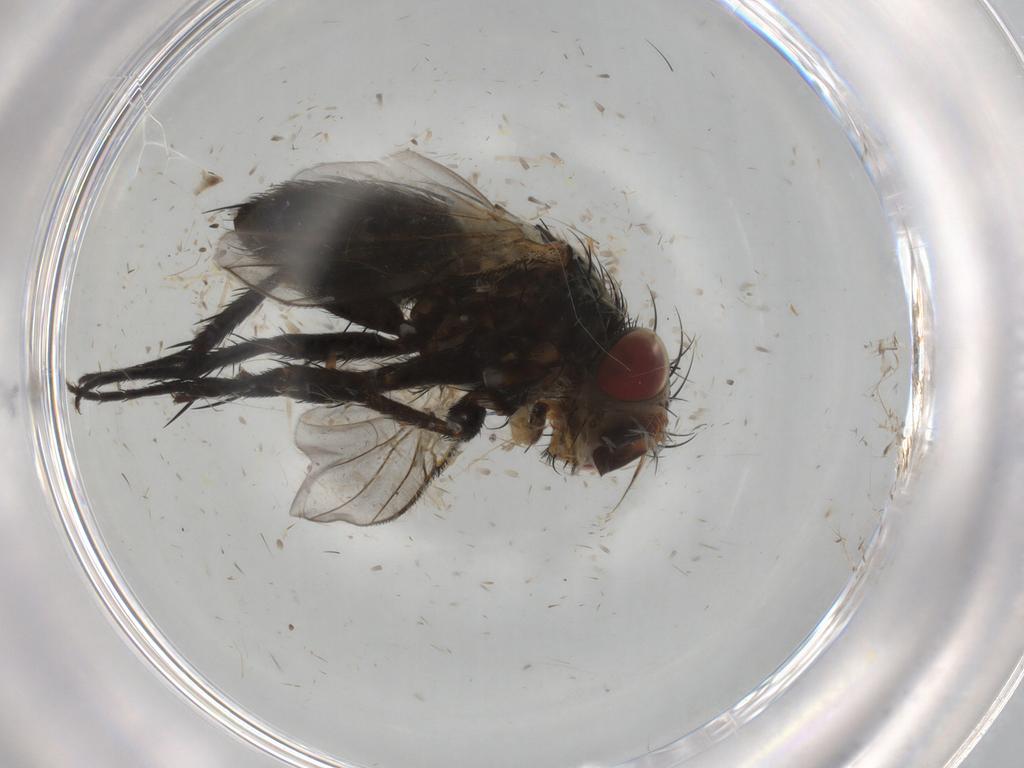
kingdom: Animalia
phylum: Arthropoda
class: Insecta
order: Diptera
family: Tachinidae
